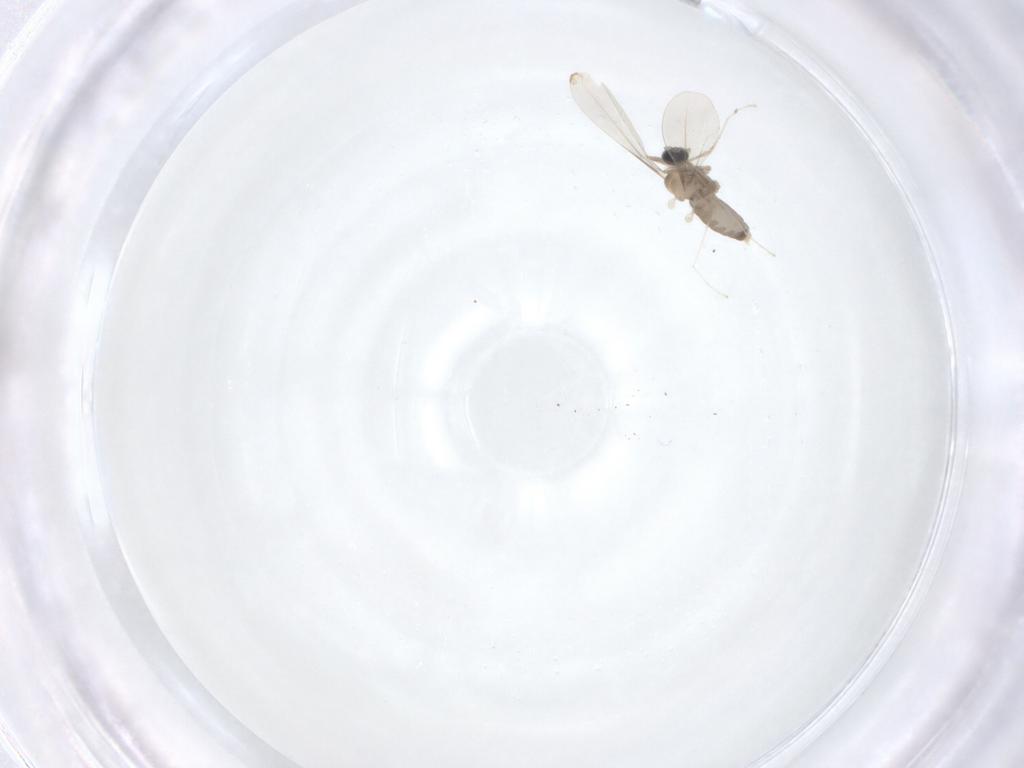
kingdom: Animalia
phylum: Arthropoda
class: Insecta
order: Diptera
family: Cecidomyiidae
